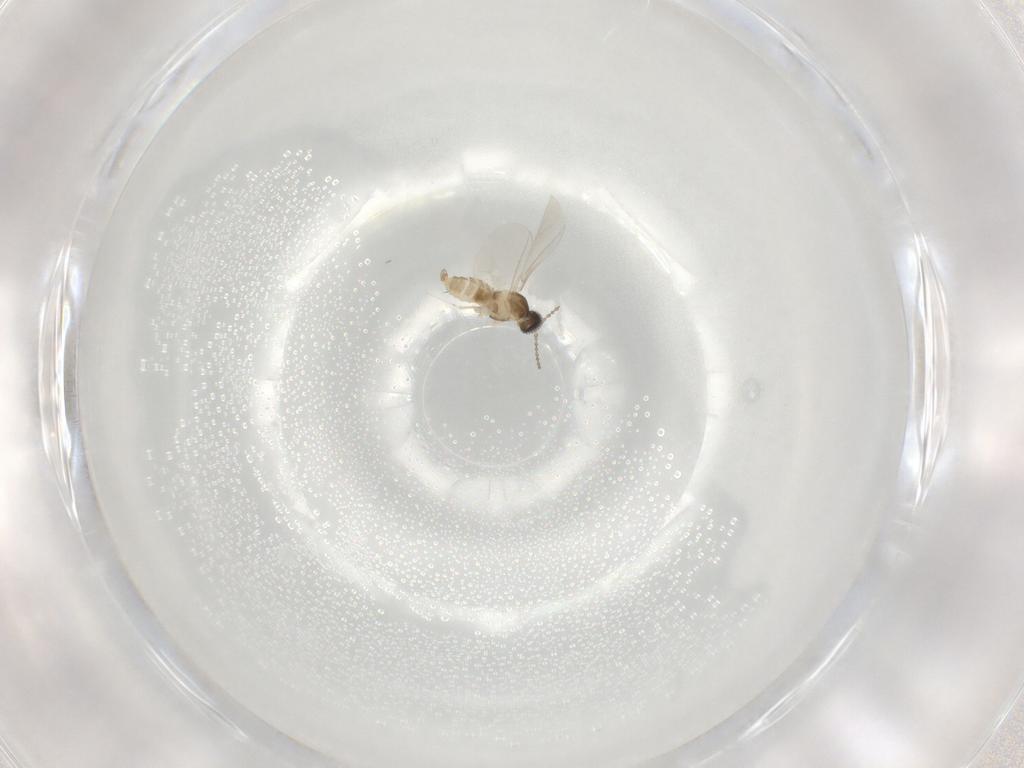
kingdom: Animalia
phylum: Arthropoda
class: Insecta
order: Diptera
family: Cecidomyiidae
